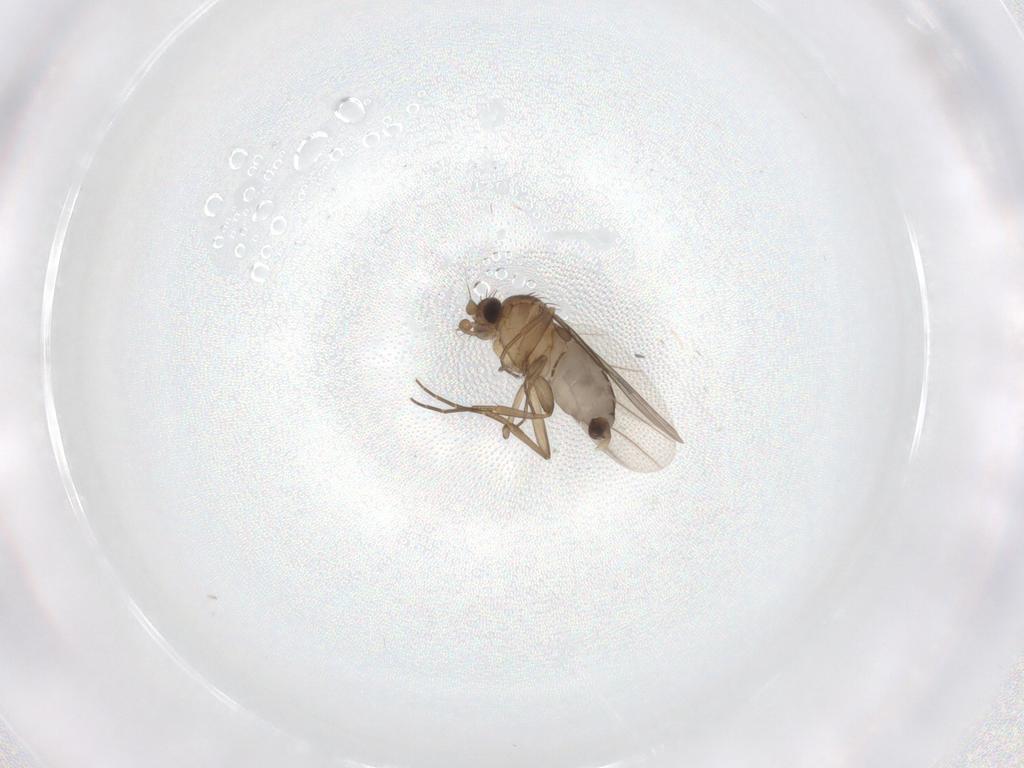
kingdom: Animalia
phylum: Arthropoda
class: Insecta
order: Diptera
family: Phoridae
